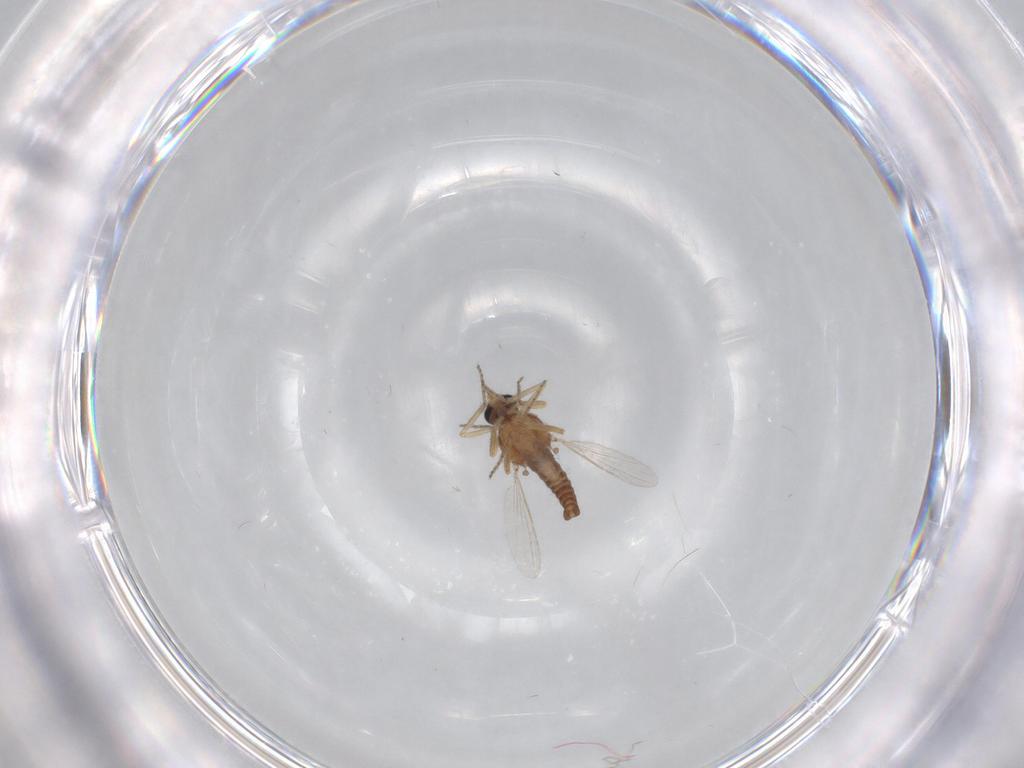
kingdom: Animalia
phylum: Arthropoda
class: Insecta
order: Diptera
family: Ceratopogonidae
